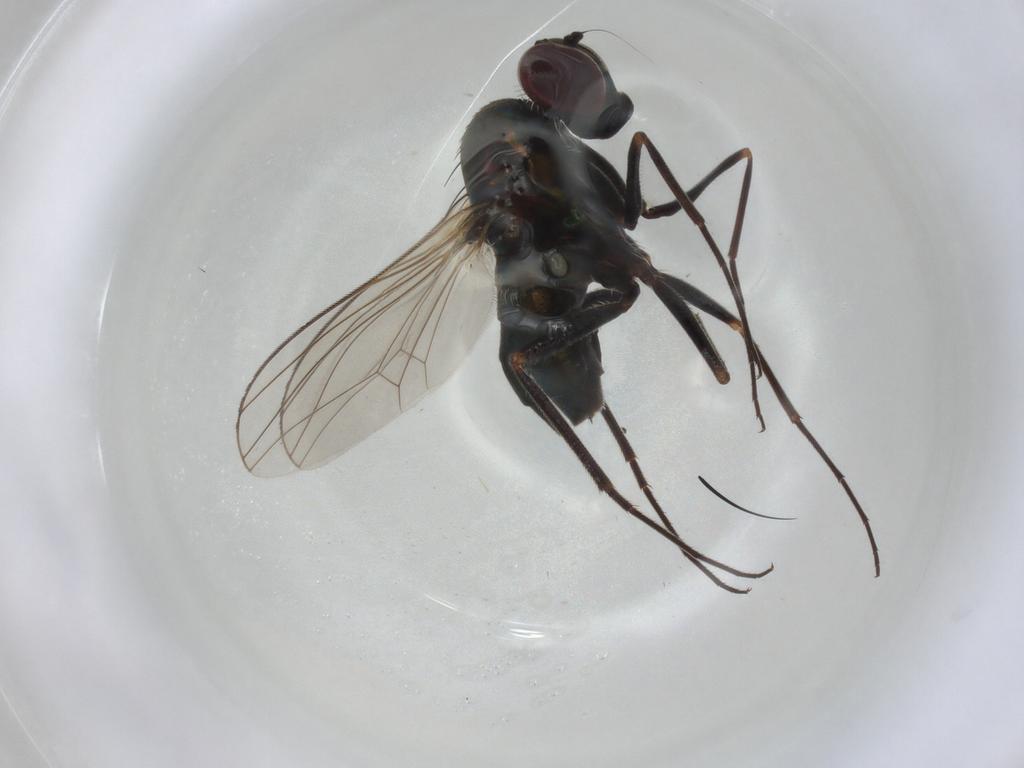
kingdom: Animalia
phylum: Arthropoda
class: Insecta
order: Diptera
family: Dolichopodidae
